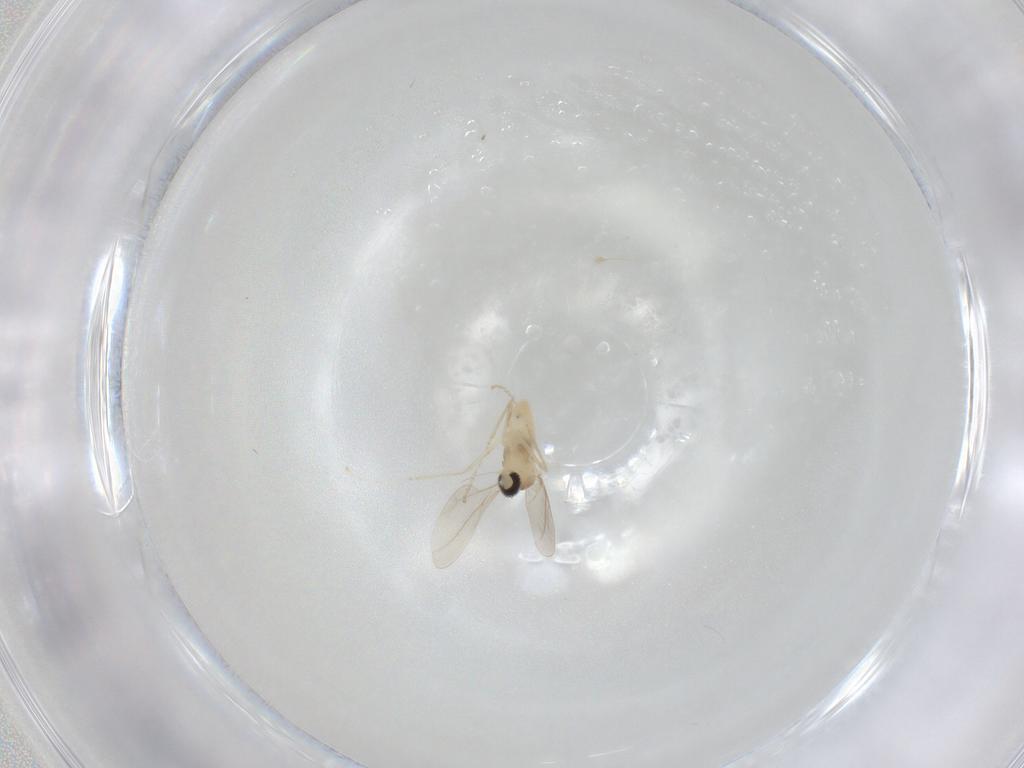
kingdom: Animalia
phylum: Arthropoda
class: Insecta
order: Diptera
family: Cecidomyiidae
